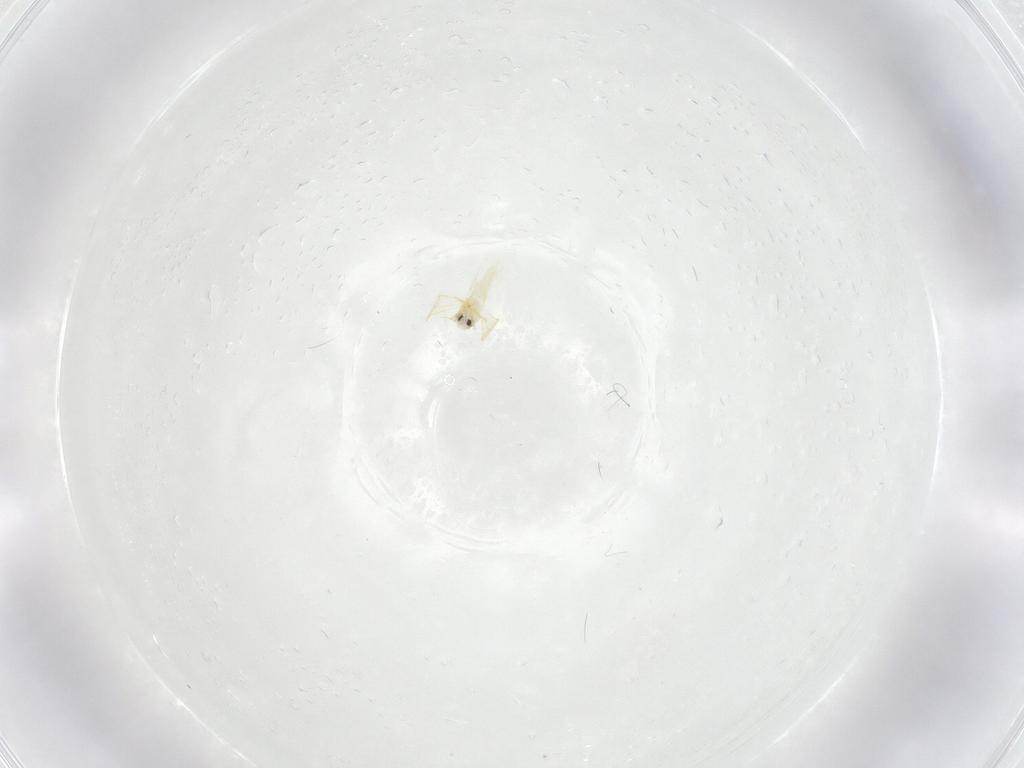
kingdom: Animalia
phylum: Arthropoda
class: Insecta
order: Hemiptera
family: Aleyrodidae
